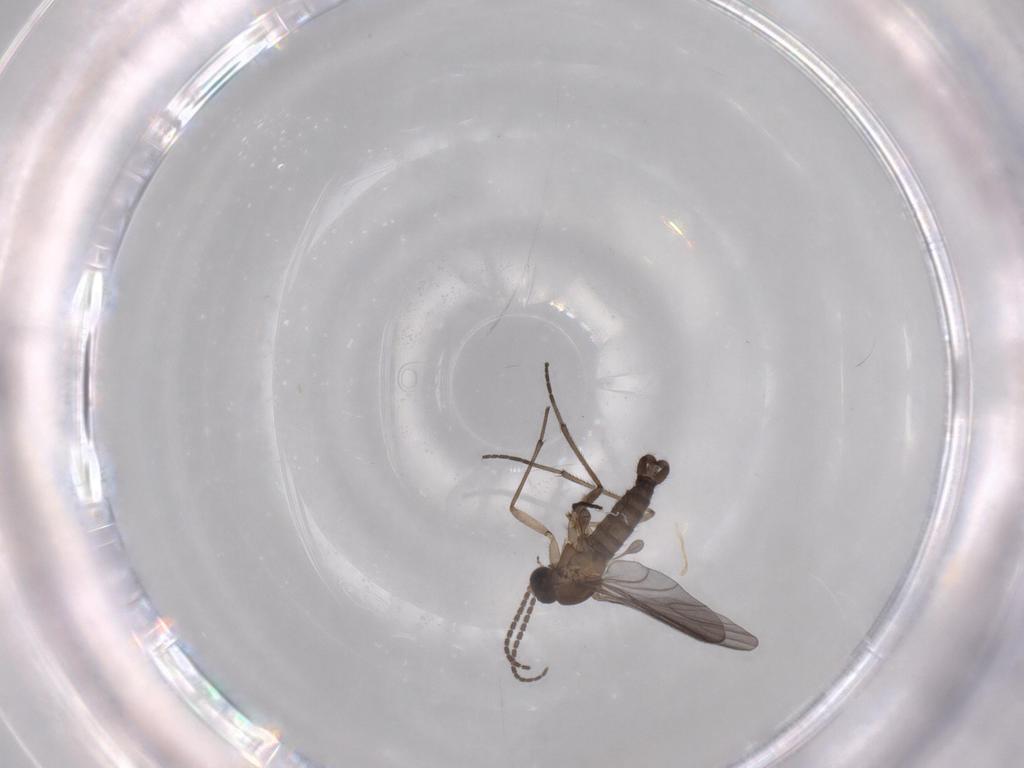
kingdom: Animalia
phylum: Arthropoda
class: Insecta
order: Diptera
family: Sciaridae
